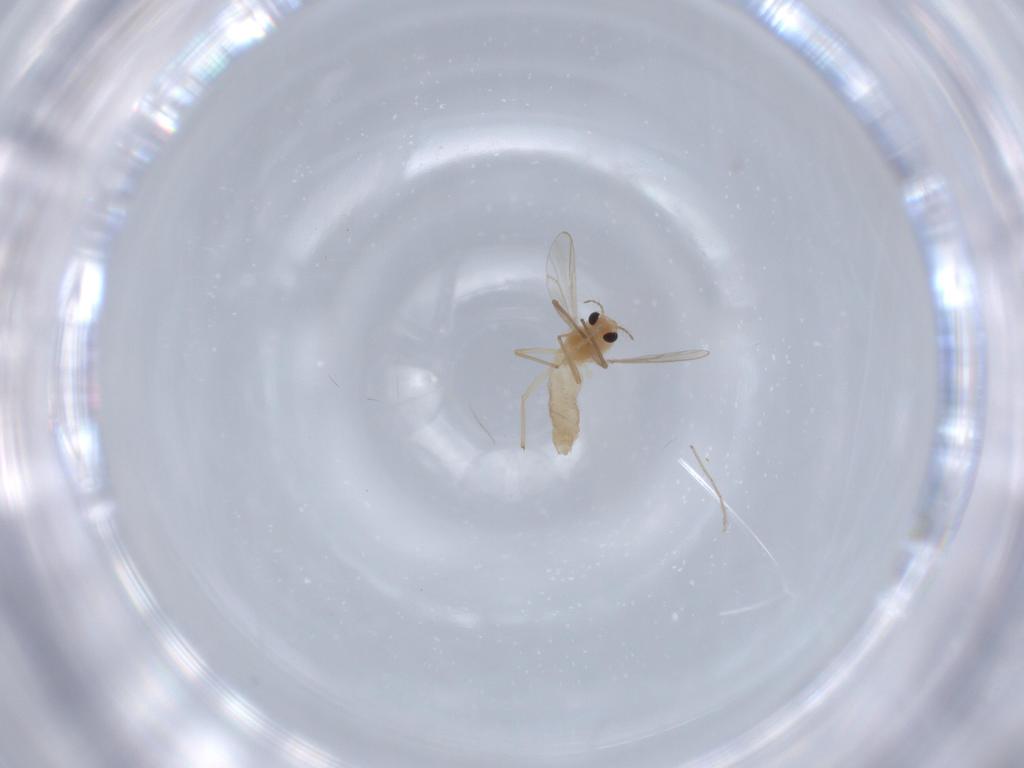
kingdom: Animalia
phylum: Arthropoda
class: Insecta
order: Diptera
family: Chironomidae
